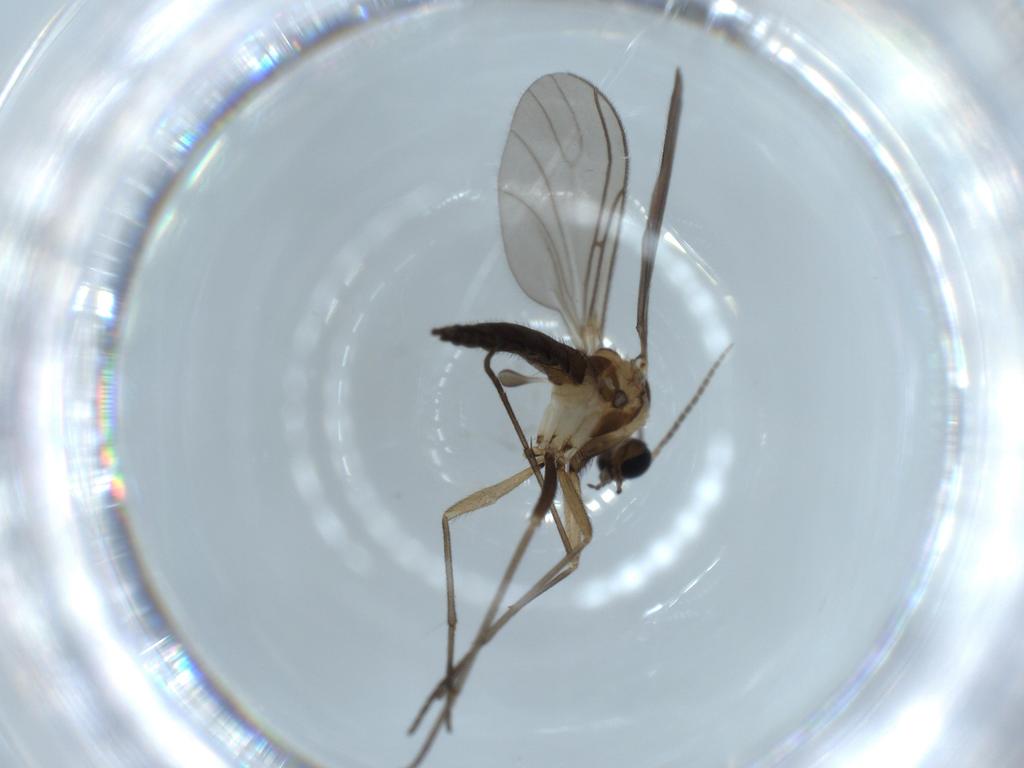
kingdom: Animalia
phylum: Arthropoda
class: Insecta
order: Diptera
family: Sciaridae
